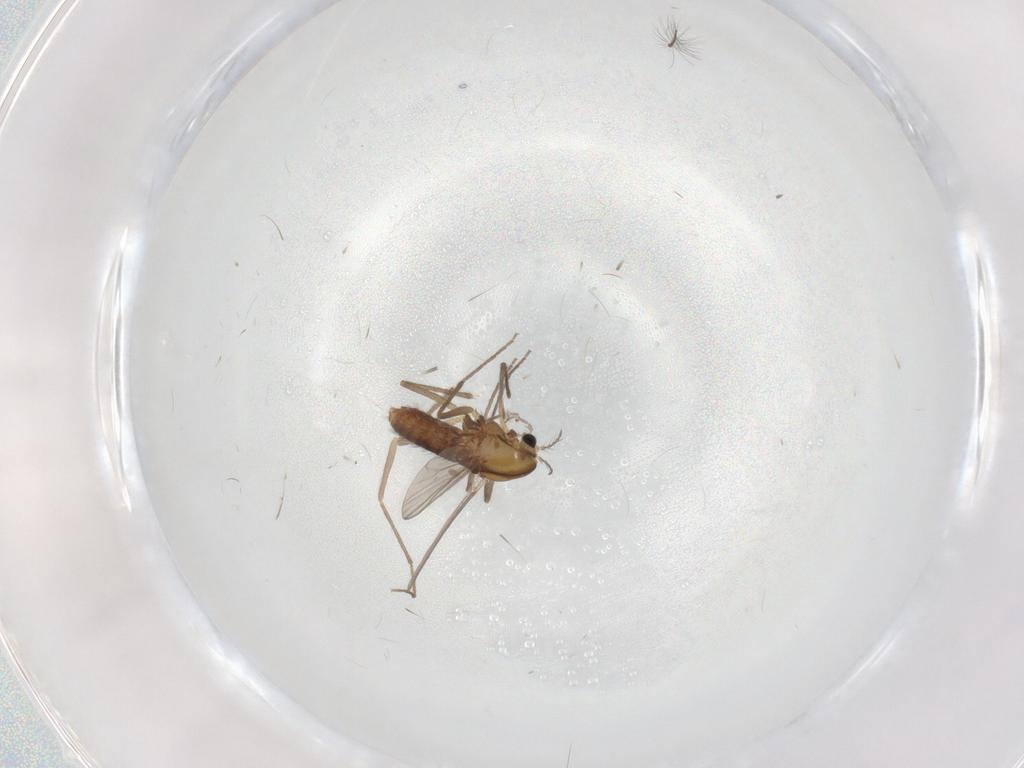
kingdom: Animalia
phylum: Arthropoda
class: Insecta
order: Diptera
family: Chironomidae
